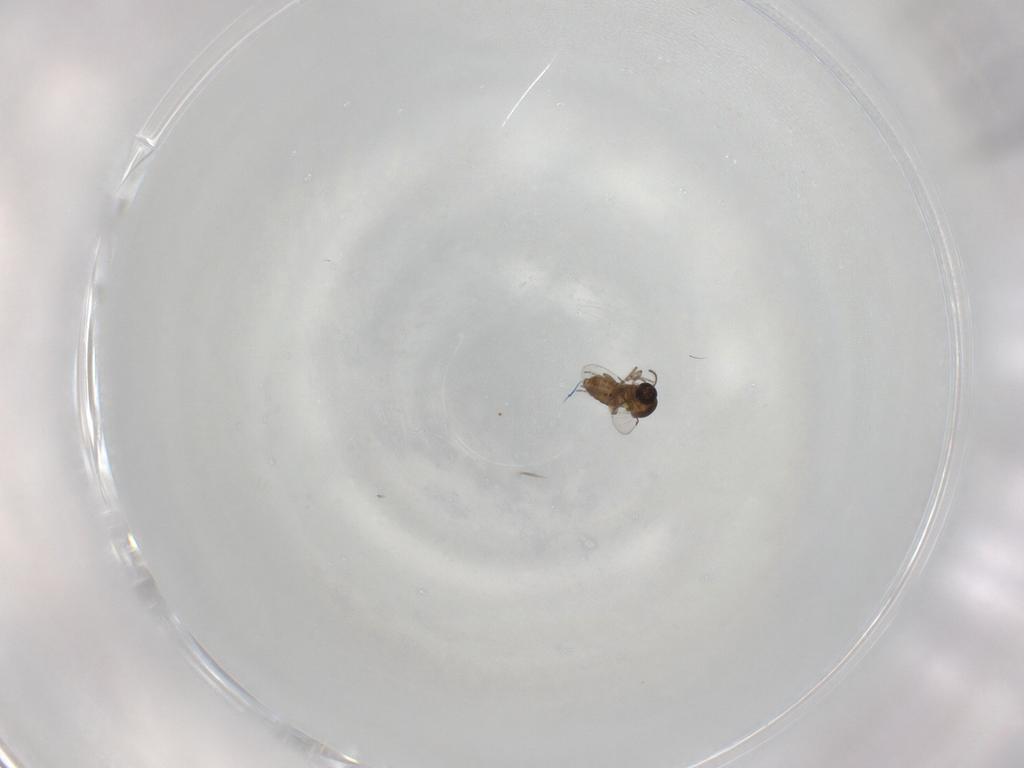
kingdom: Animalia
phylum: Arthropoda
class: Insecta
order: Diptera
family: Ceratopogonidae
